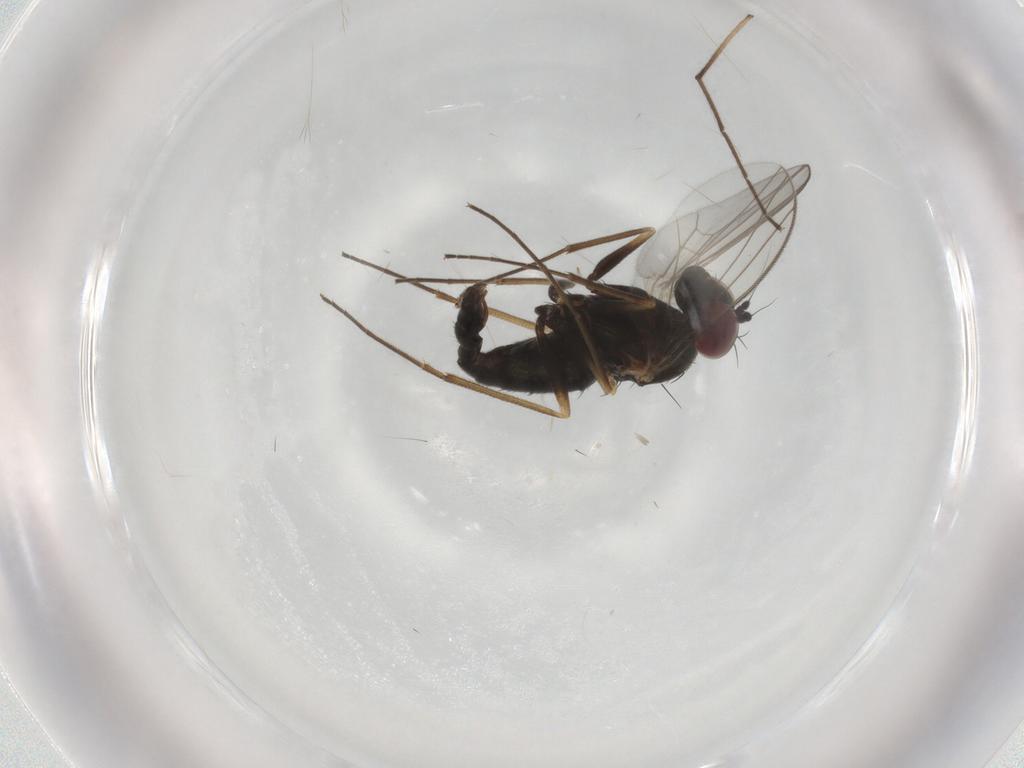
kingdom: Animalia
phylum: Arthropoda
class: Insecta
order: Diptera
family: Dolichopodidae
